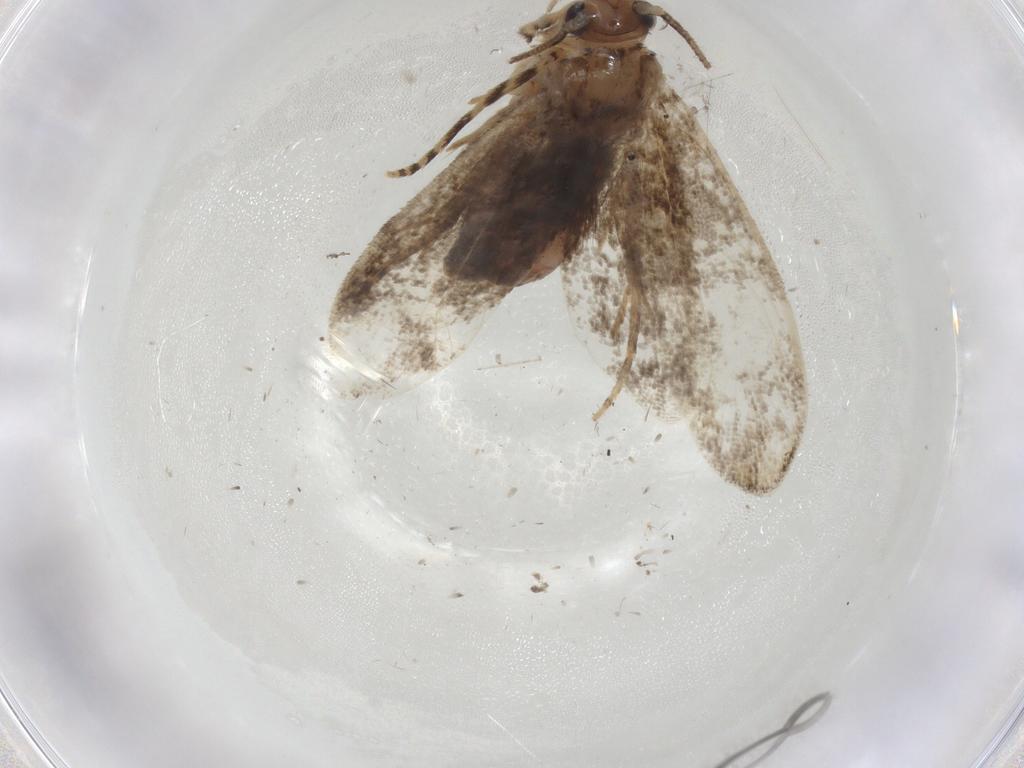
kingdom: Animalia
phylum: Arthropoda
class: Insecta
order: Lepidoptera
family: Tineidae
